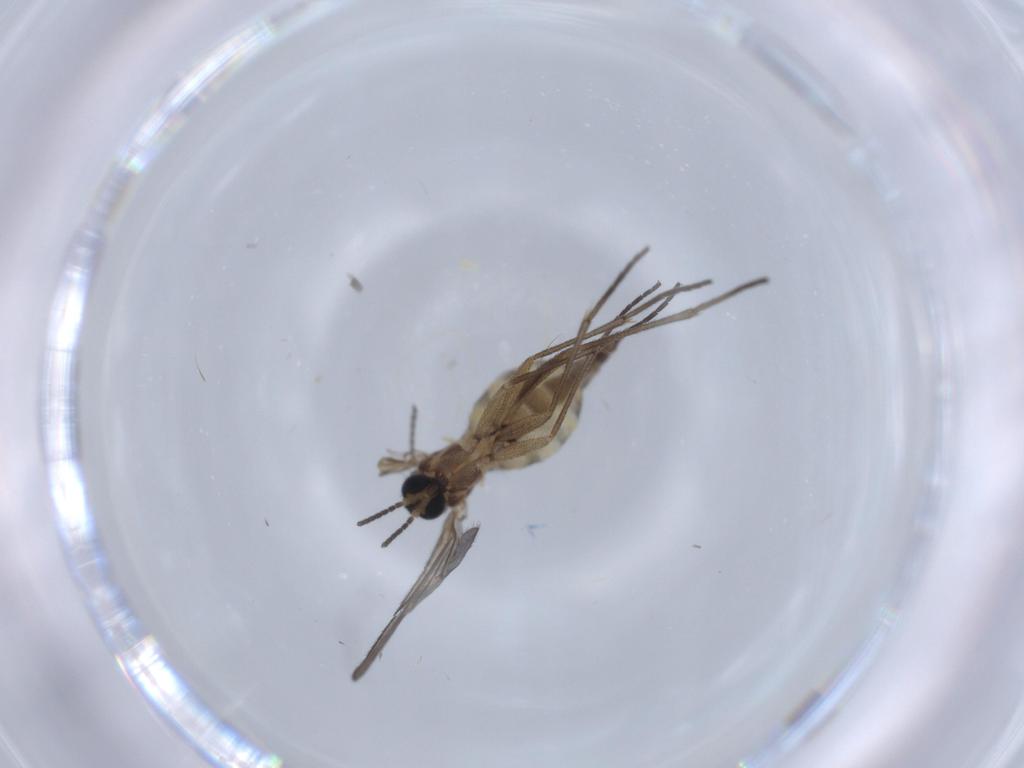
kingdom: Animalia
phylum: Arthropoda
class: Insecta
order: Diptera
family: Sciaridae
